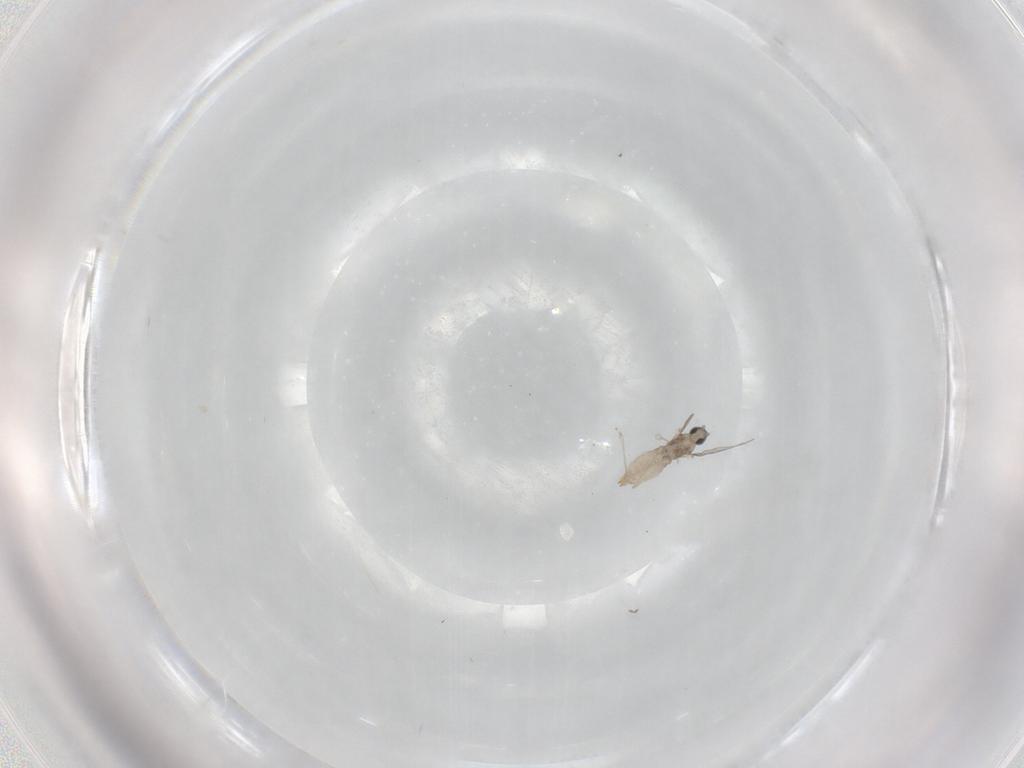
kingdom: Animalia
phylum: Arthropoda
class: Insecta
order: Diptera
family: Cecidomyiidae
